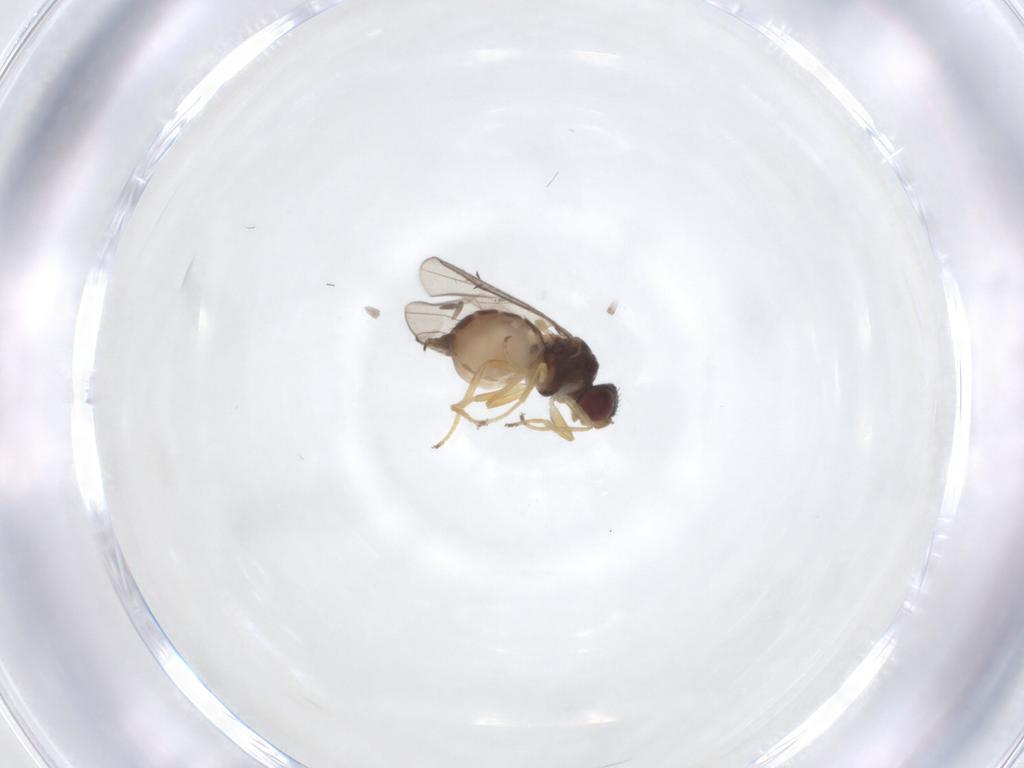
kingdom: Animalia
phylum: Arthropoda
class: Insecta
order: Diptera
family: Chloropidae
